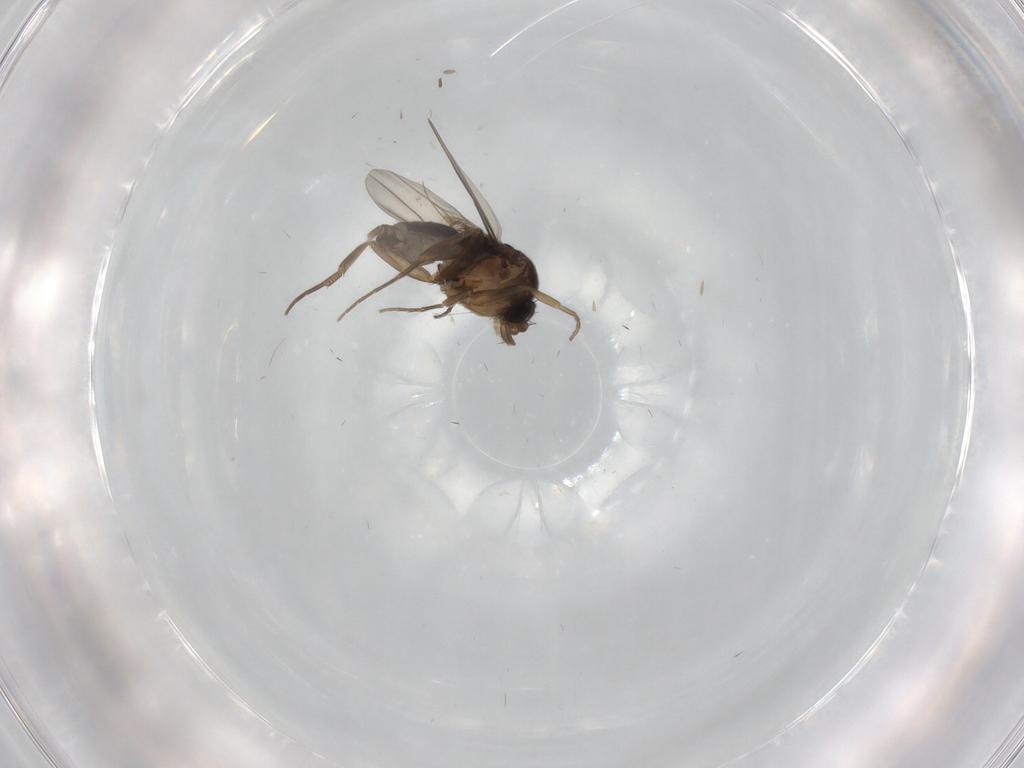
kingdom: Animalia
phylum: Arthropoda
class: Insecta
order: Diptera
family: Phoridae
